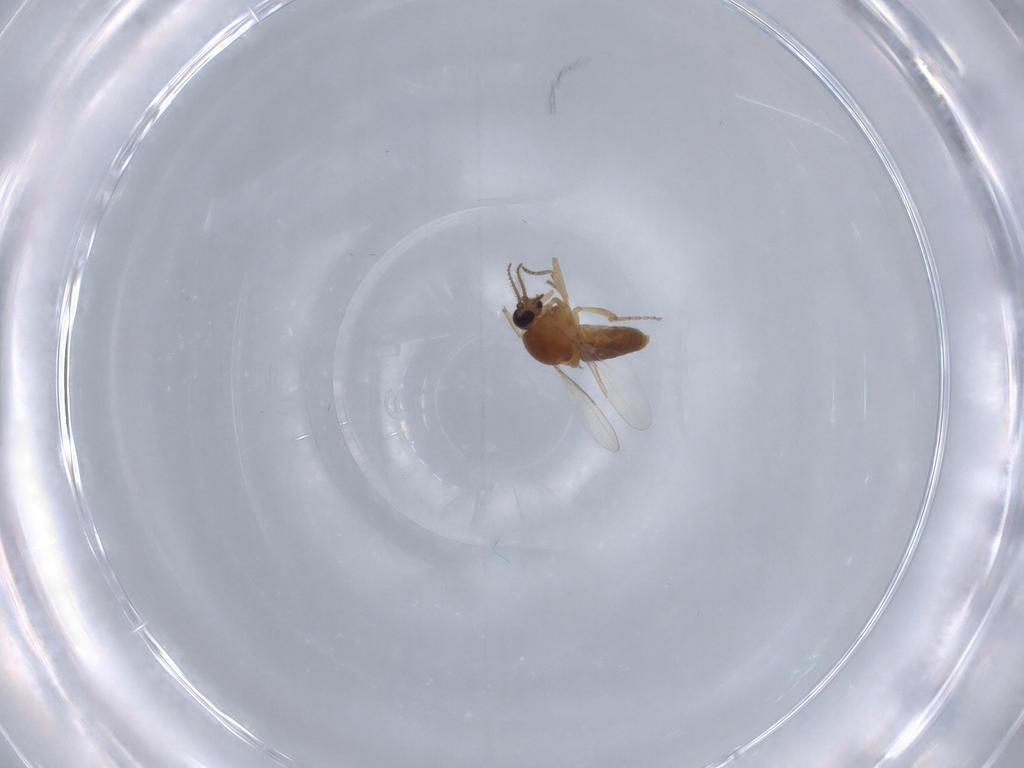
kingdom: Animalia
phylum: Arthropoda
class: Insecta
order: Diptera
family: Ceratopogonidae
